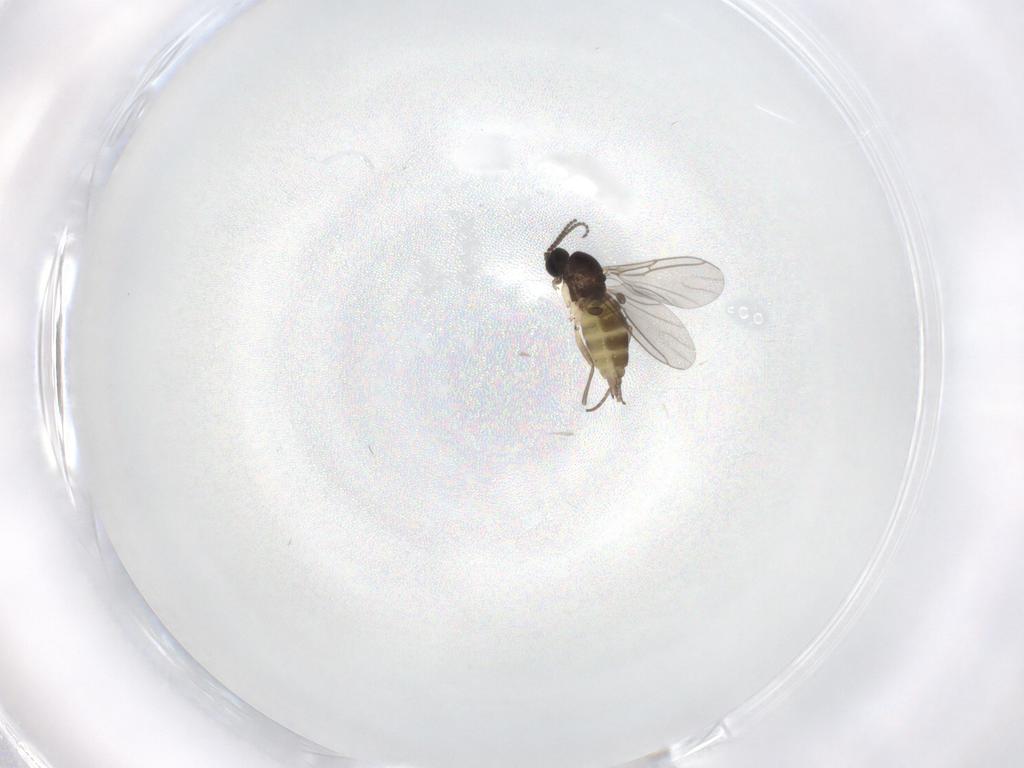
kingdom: Animalia
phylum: Arthropoda
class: Insecta
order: Diptera
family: Sciaridae
